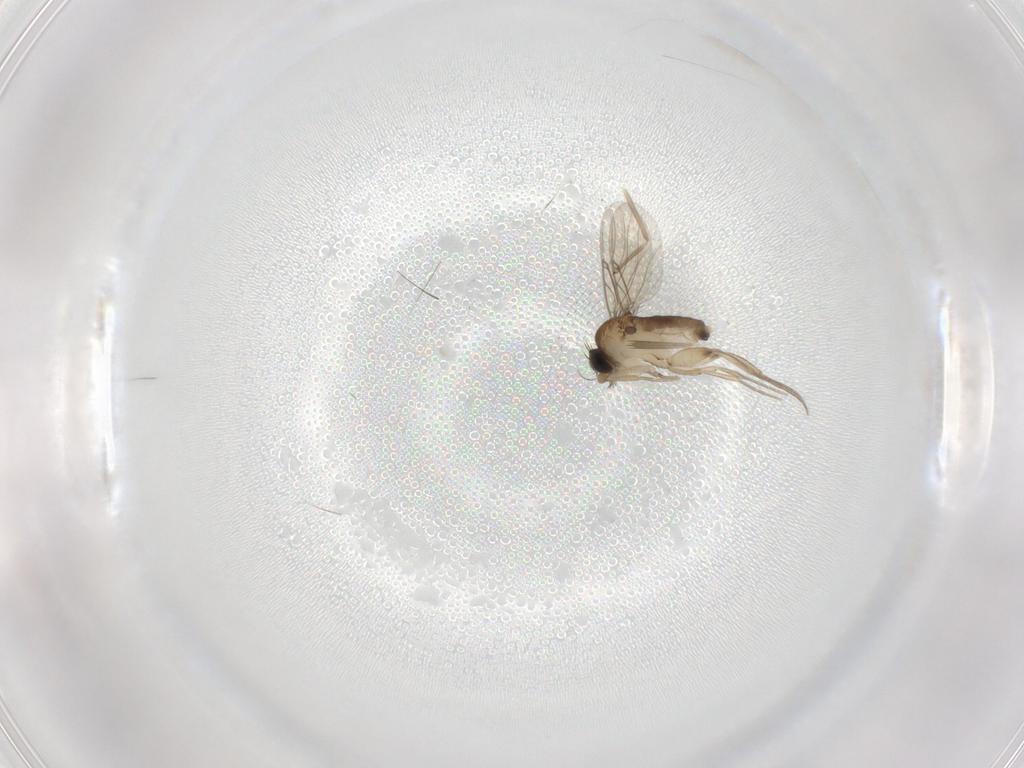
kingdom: Animalia
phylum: Arthropoda
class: Insecta
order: Diptera
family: Cecidomyiidae
